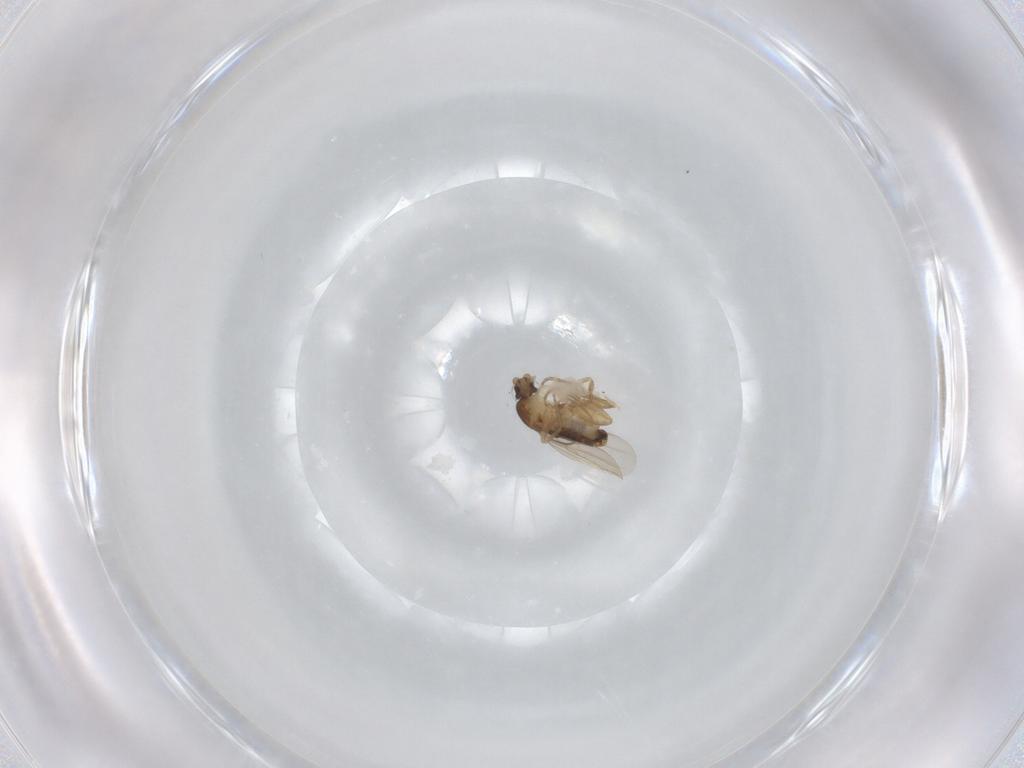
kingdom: Animalia
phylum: Arthropoda
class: Insecta
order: Diptera
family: Phoridae
